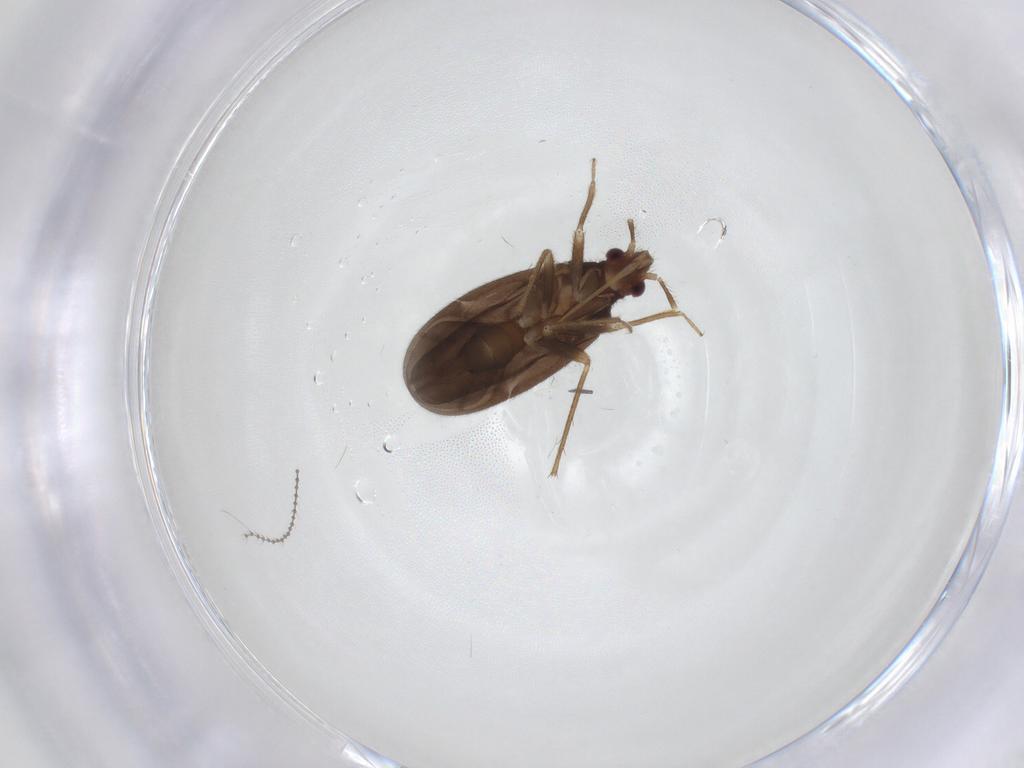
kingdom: Animalia
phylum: Arthropoda
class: Insecta
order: Hemiptera
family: Ceratocombidae
